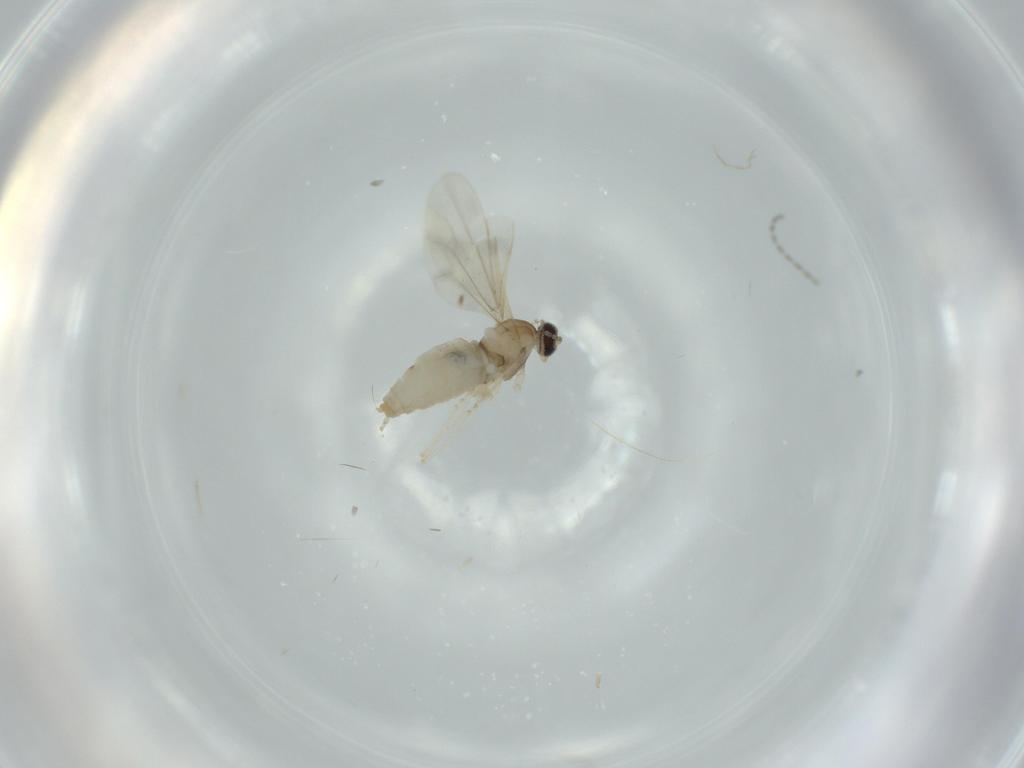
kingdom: Animalia
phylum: Arthropoda
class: Insecta
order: Diptera
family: Cecidomyiidae
